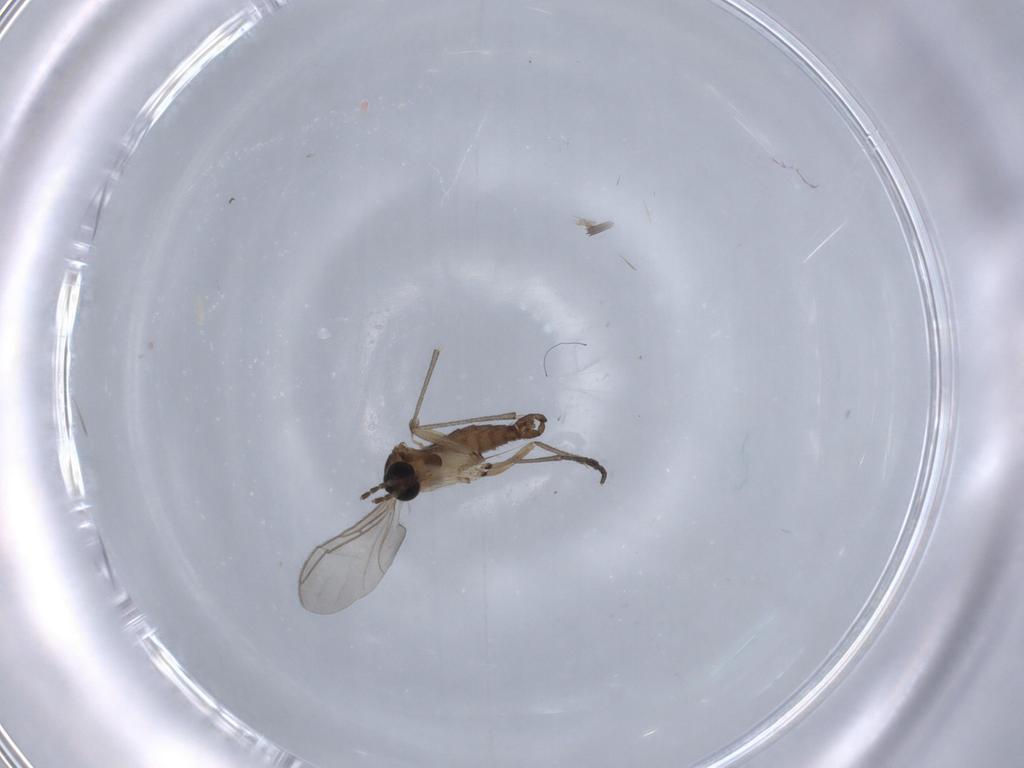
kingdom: Animalia
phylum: Arthropoda
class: Insecta
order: Diptera
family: Sciaridae
